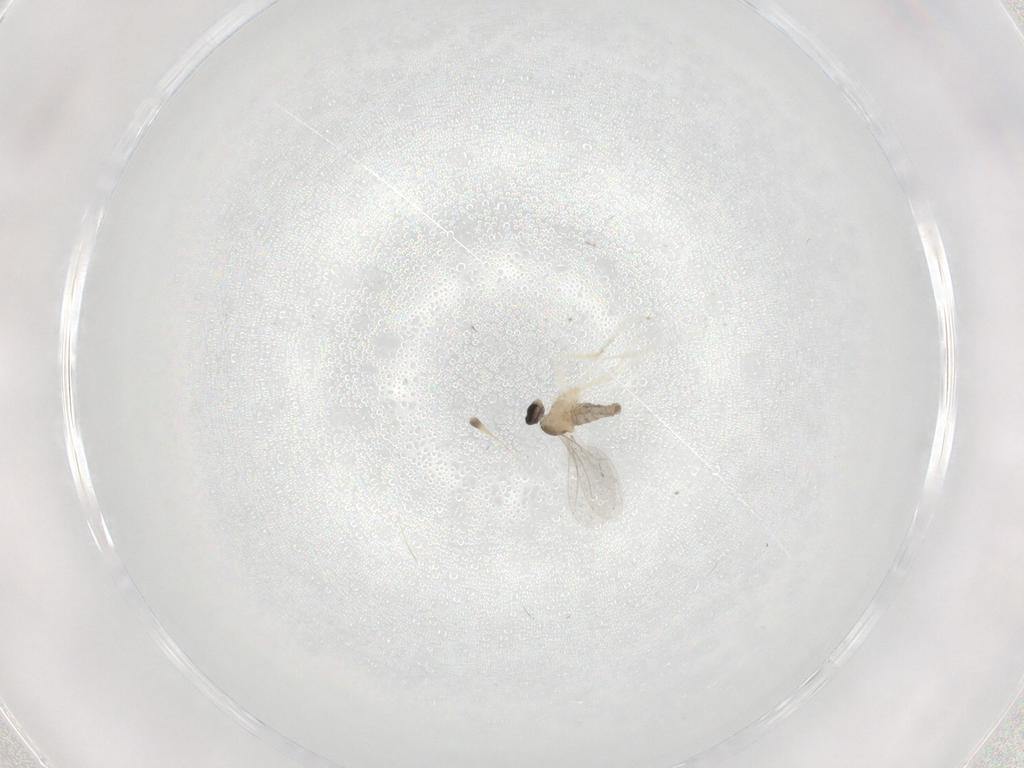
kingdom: Animalia
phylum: Arthropoda
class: Insecta
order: Diptera
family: Cecidomyiidae
